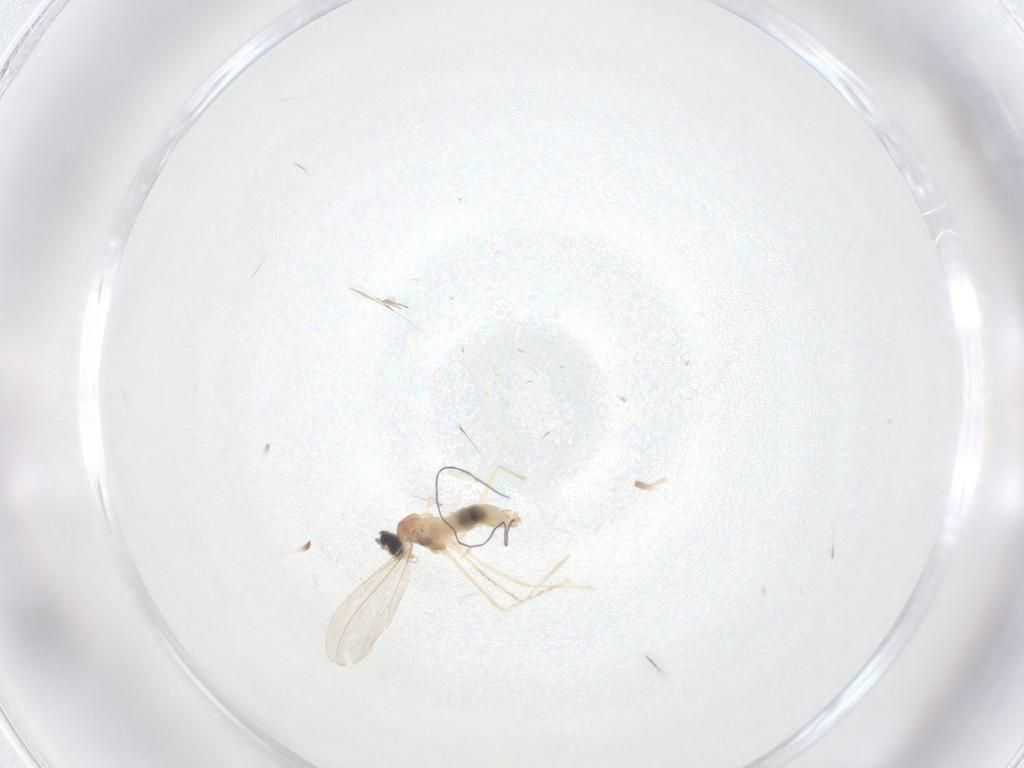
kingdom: Animalia
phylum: Arthropoda
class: Insecta
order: Diptera
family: Cecidomyiidae
